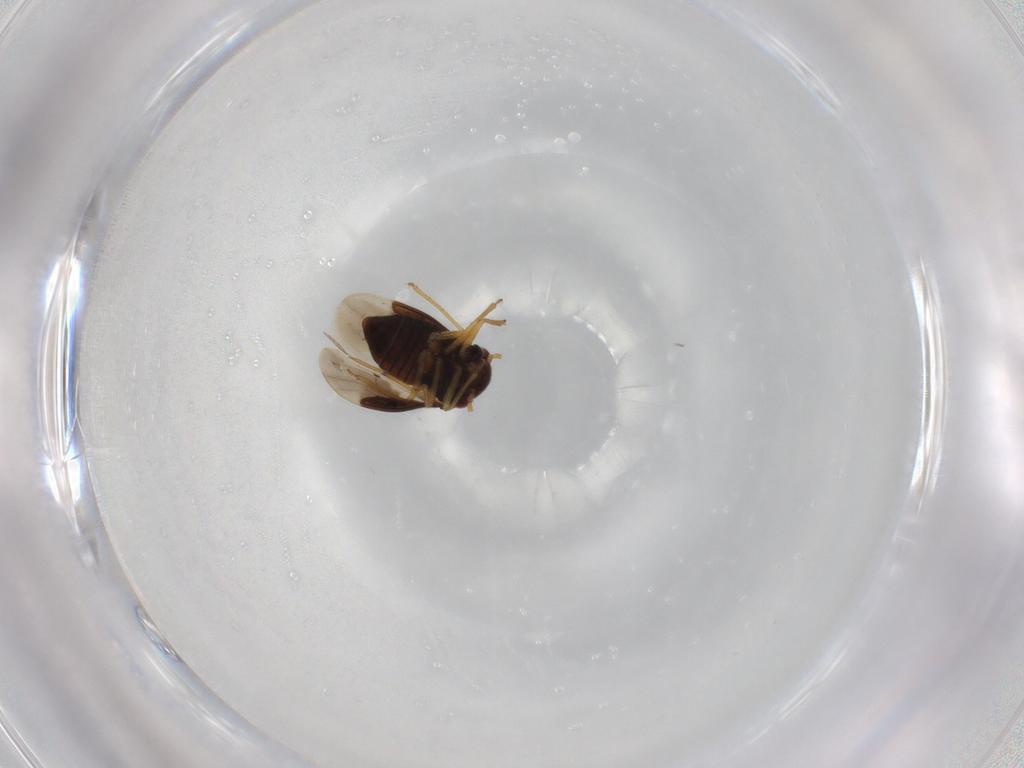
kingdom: Animalia
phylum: Arthropoda
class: Insecta
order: Hemiptera
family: Schizopteridae
